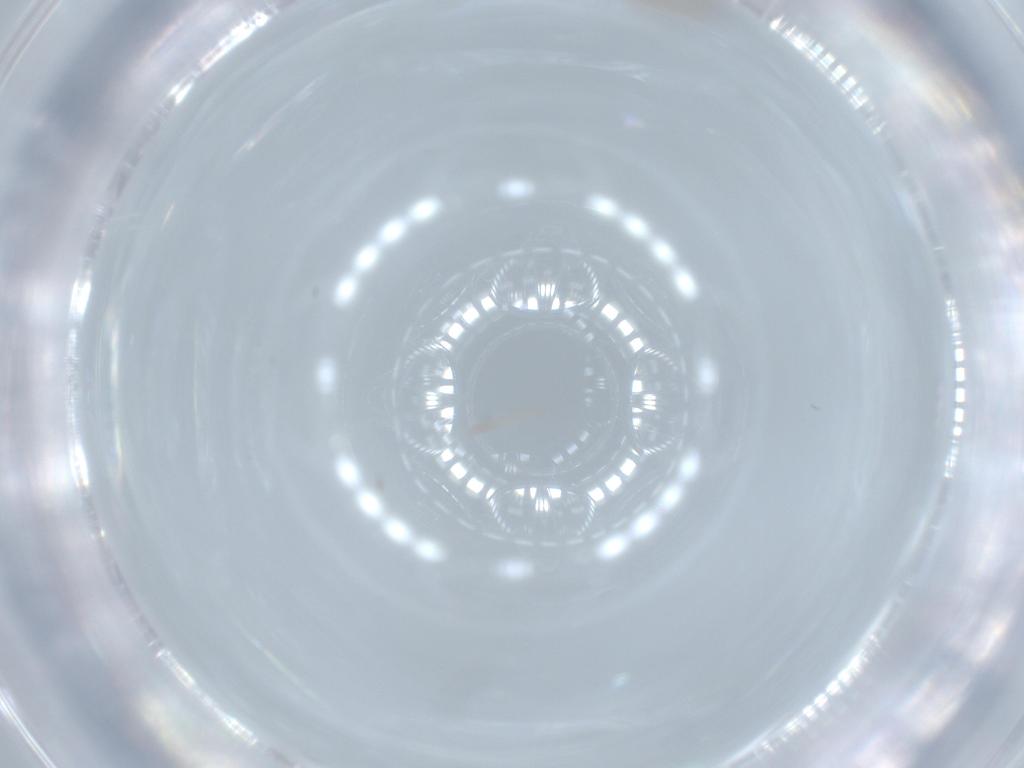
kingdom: Animalia
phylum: Arthropoda
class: Insecta
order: Diptera
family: Cecidomyiidae
